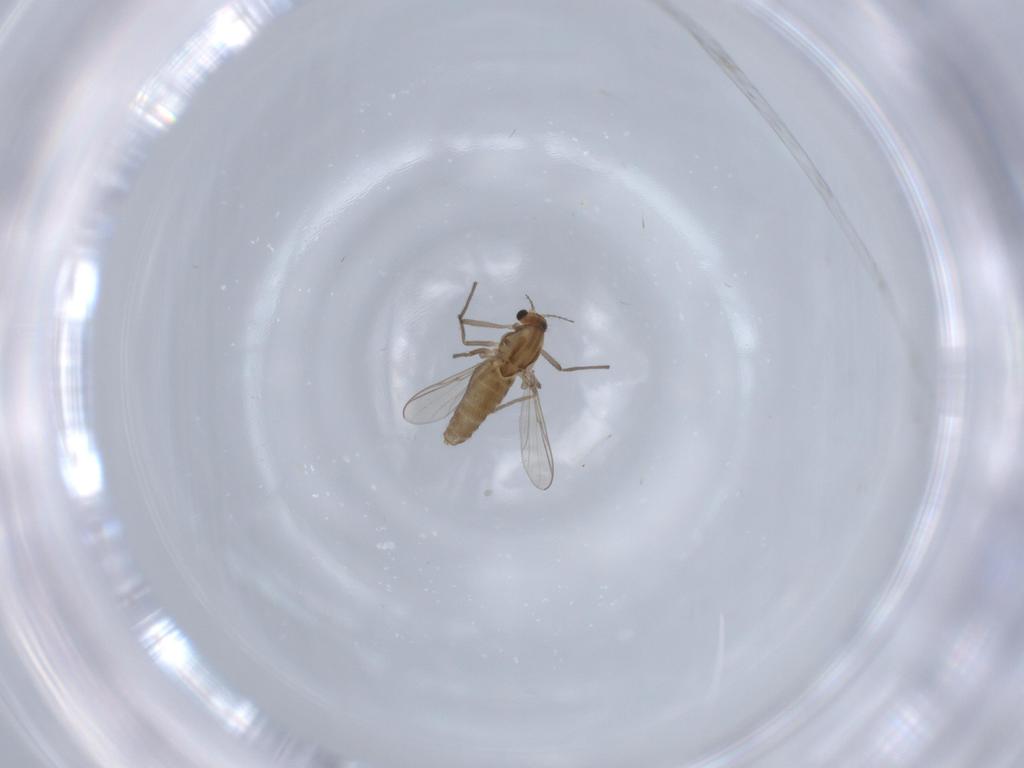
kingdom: Animalia
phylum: Arthropoda
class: Insecta
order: Diptera
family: Chironomidae
